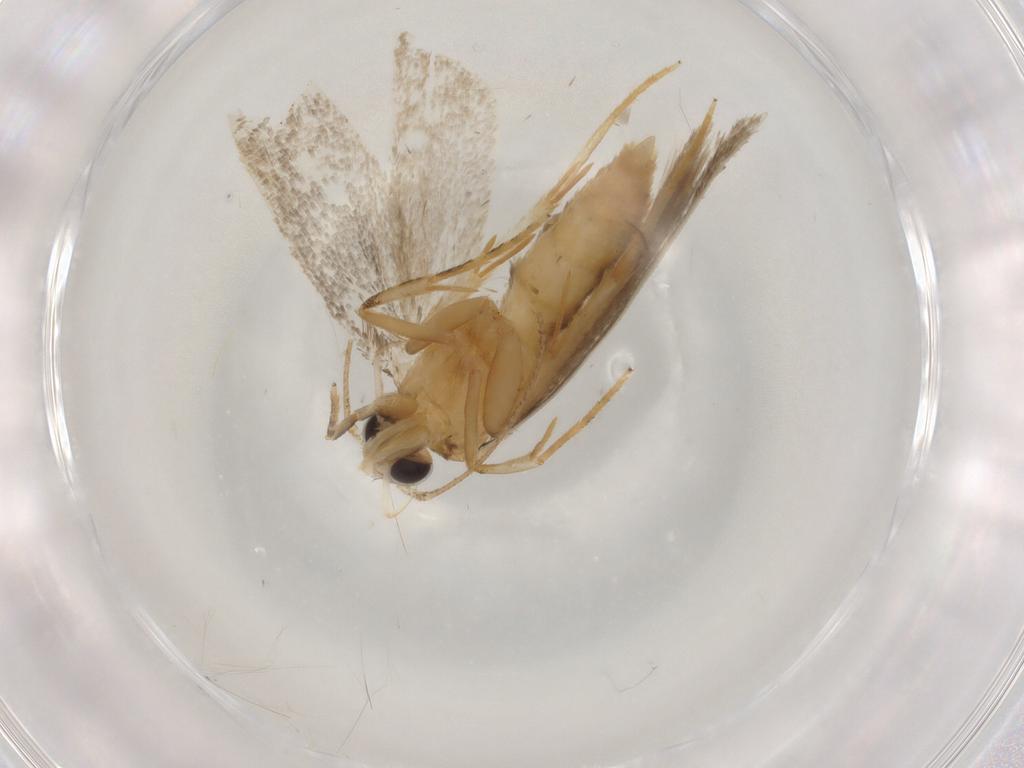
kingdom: Animalia
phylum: Arthropoda
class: Insecta
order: Lepidoptera
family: Autostichidae
